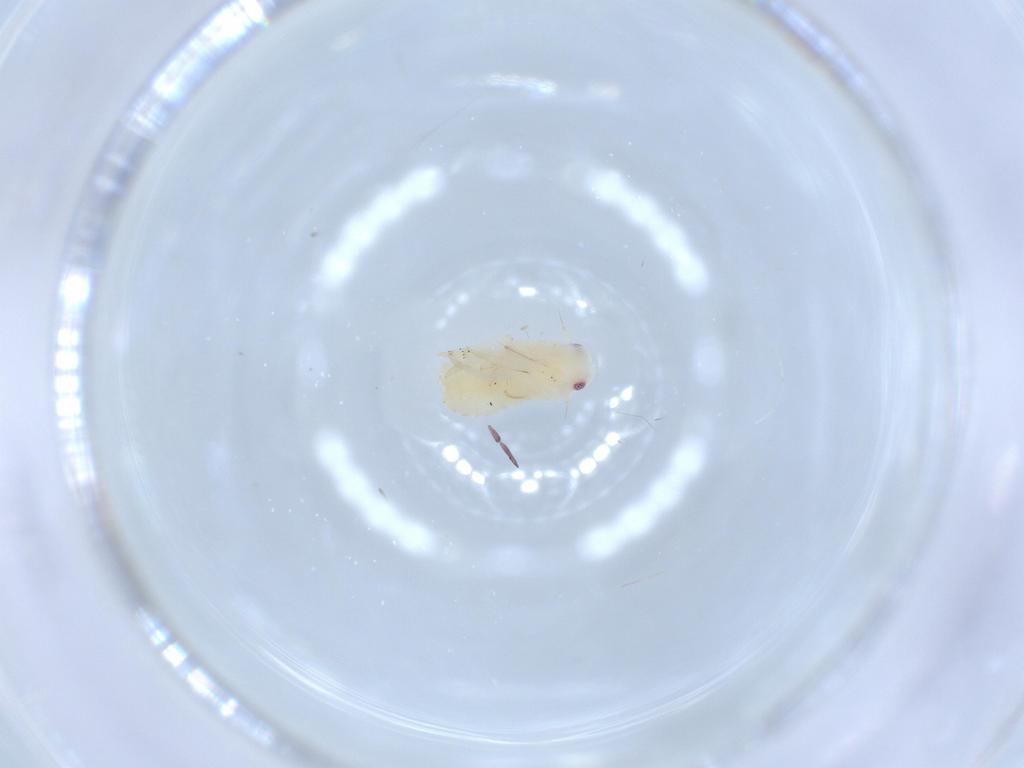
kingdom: Animalia
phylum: Arthropoda
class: Insecta
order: Hemiptera
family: Flatidae
